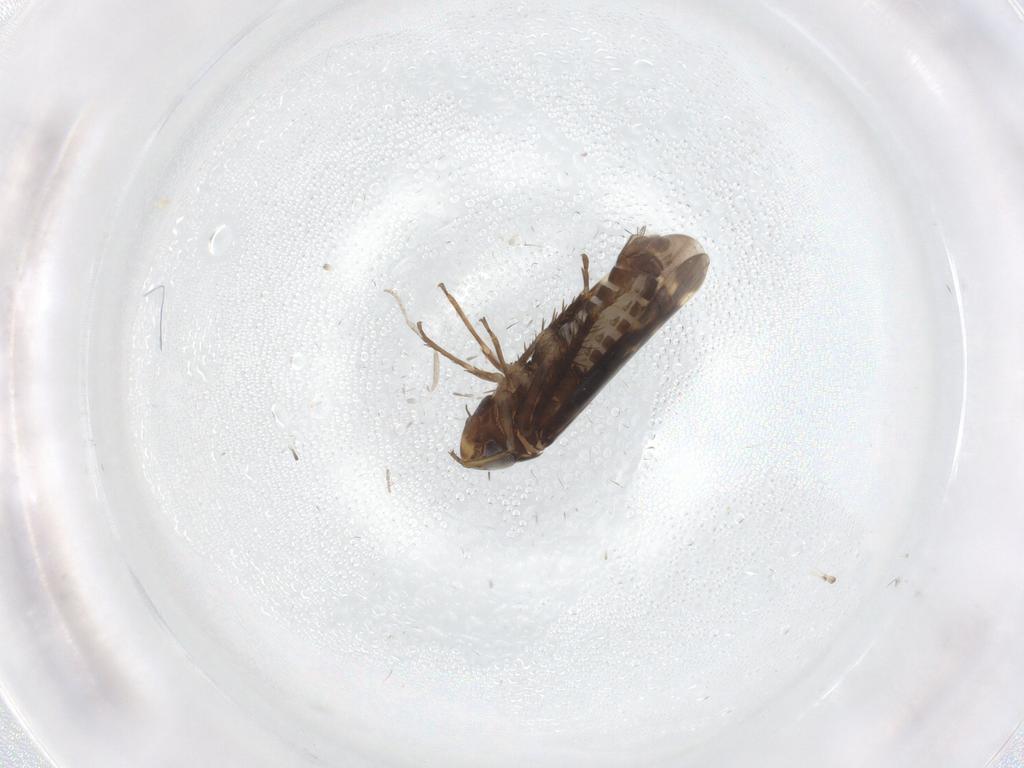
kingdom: Animalia
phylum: Arthropoda
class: Insecta
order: Hemiptera
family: Cicadellidae
